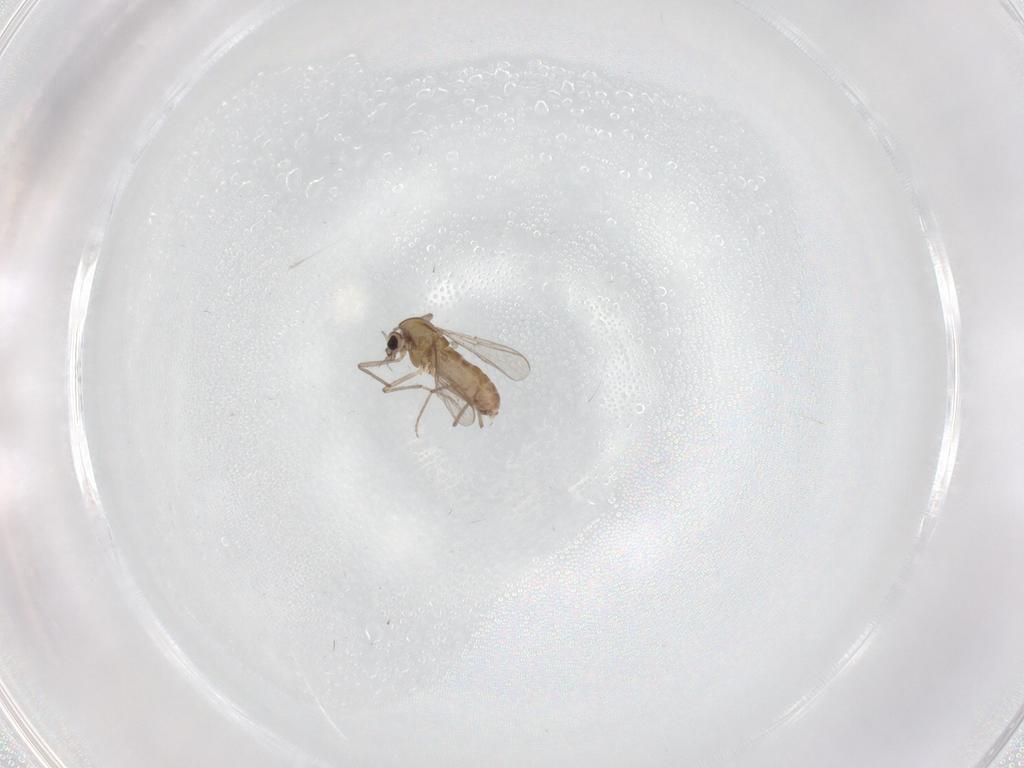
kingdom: Animalia
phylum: Arthropoda
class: Insecta
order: Diptera
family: Chironomidae
